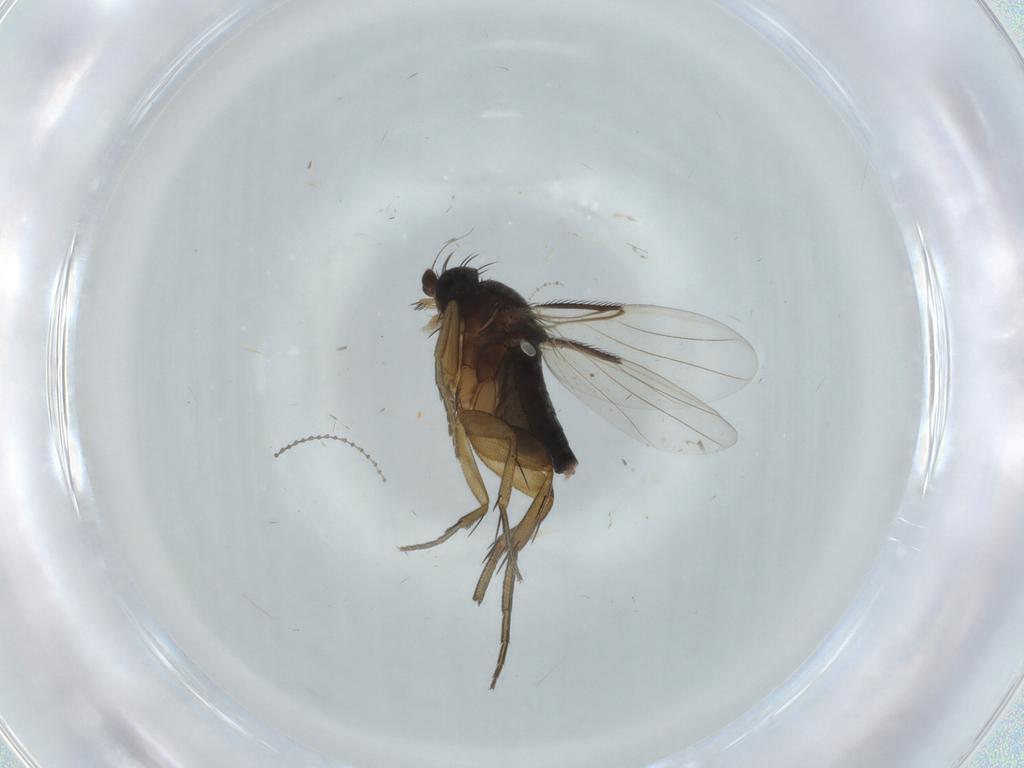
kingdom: Animalia
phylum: Arthropoda
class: Insecta
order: Diptera
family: Phoridae
